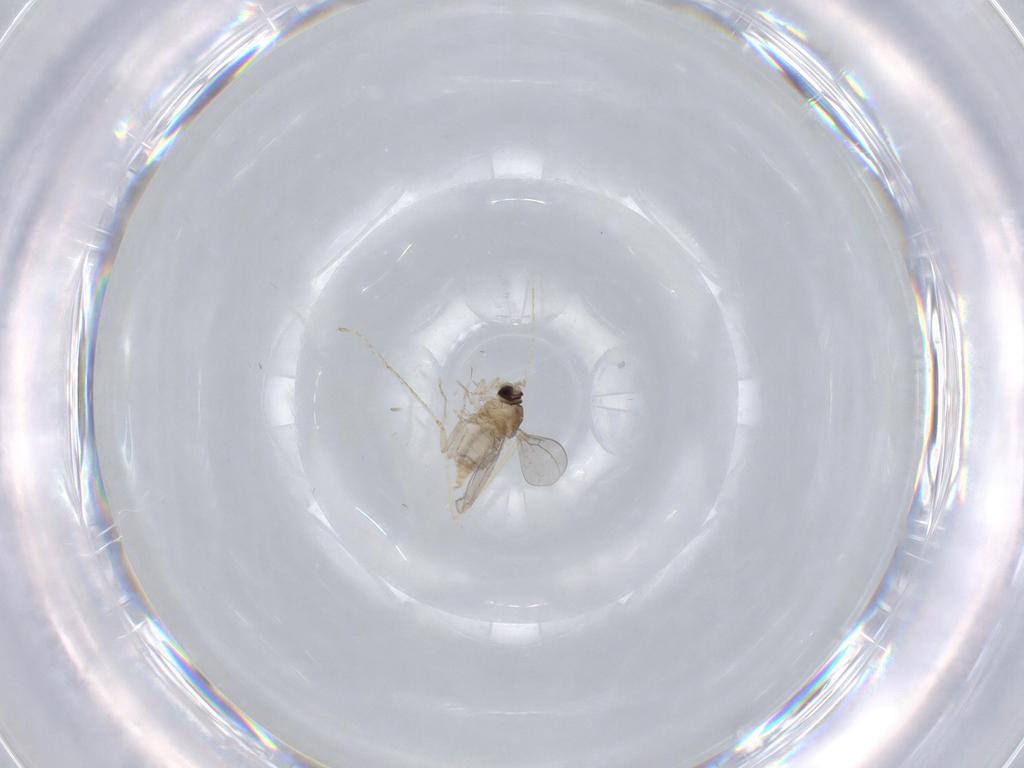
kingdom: Animalia
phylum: Arthropoda
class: Insecta
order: Diptera
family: Cecidomyiidae
